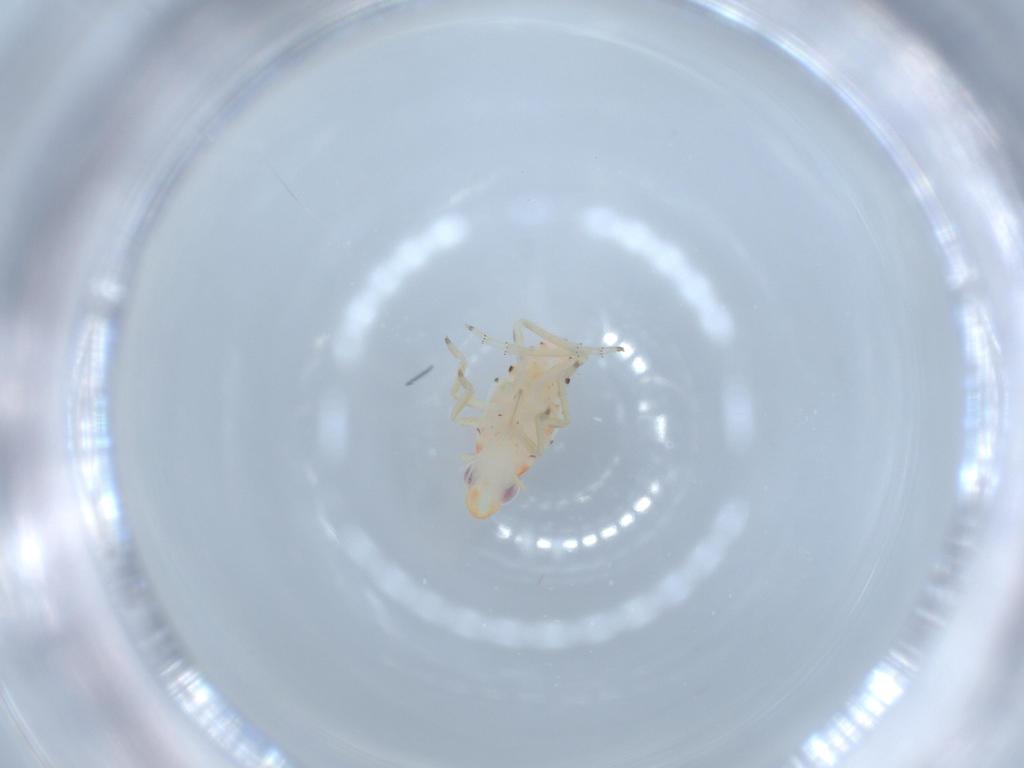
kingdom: Animalia
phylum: Arthropoda
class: Insecta
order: Hemiptera
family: Tropiduchidae
